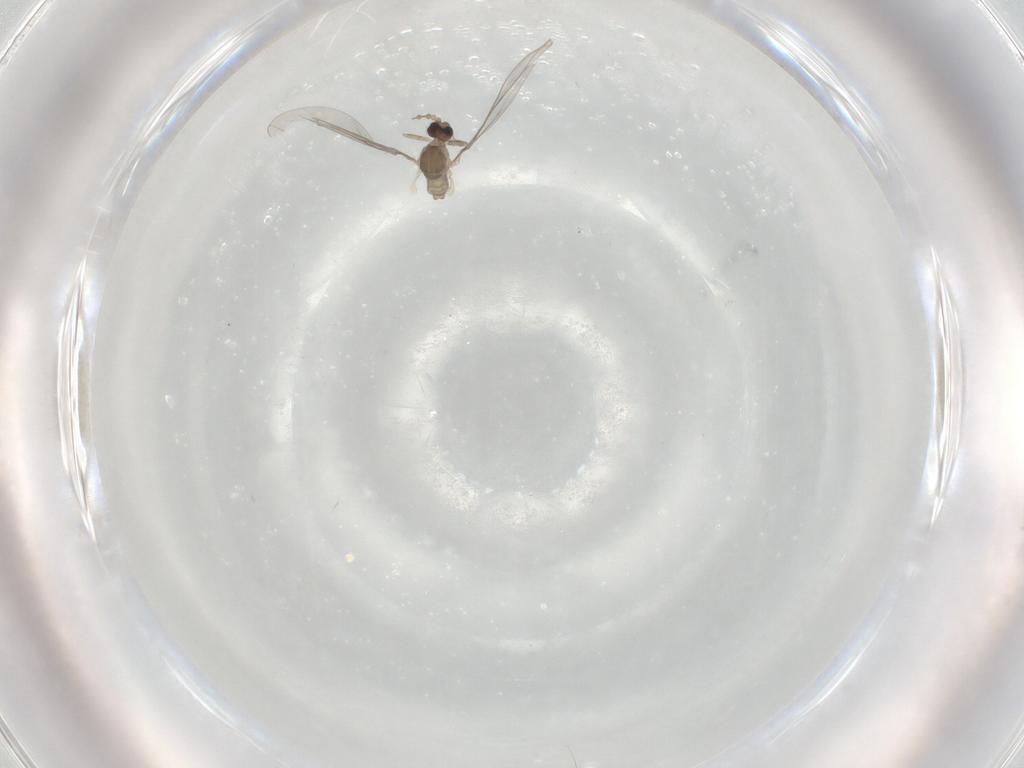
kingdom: Animalia
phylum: Arthropoda
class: Insecta
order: Diptera
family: Cecidomyiidae
